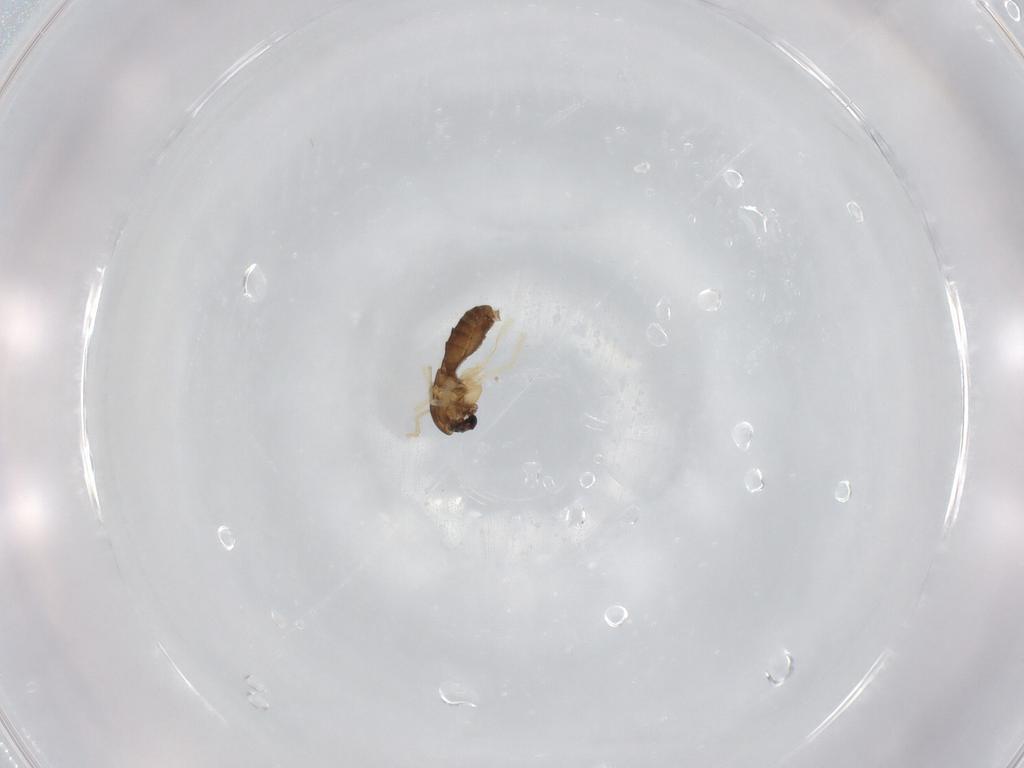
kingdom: Animalia
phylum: Arthropoda
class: Insecta
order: Diptera
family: Chironomidae
